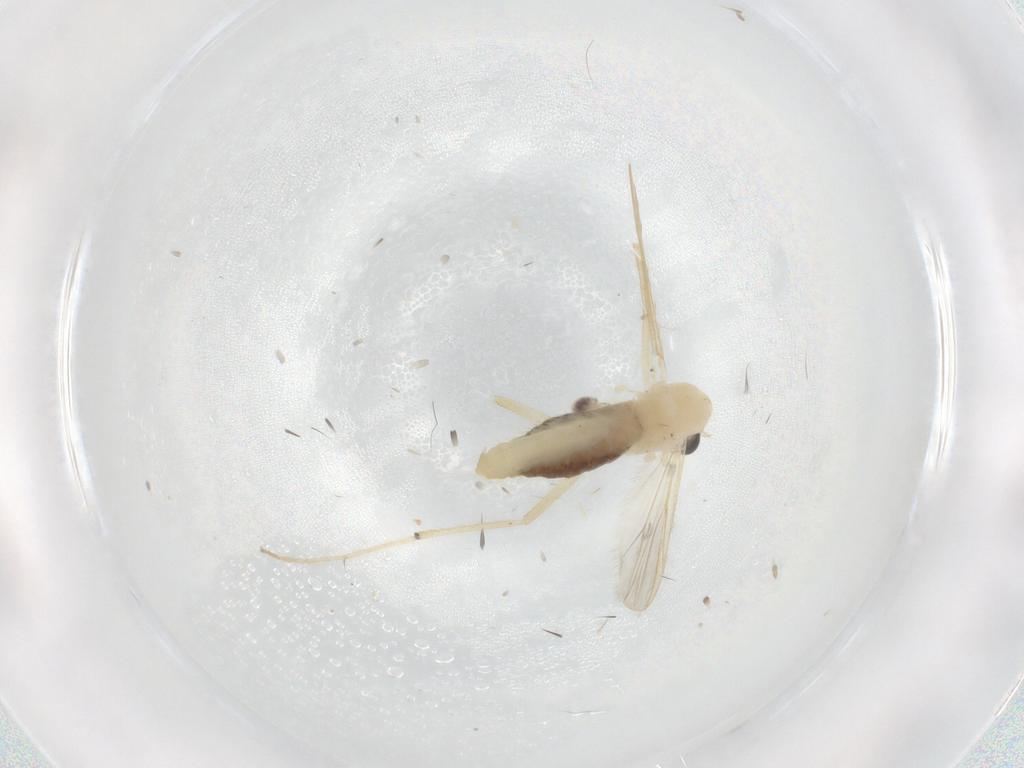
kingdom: Animalia
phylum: Arthropoda
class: Insecta
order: Diptera
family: Chironomidae
